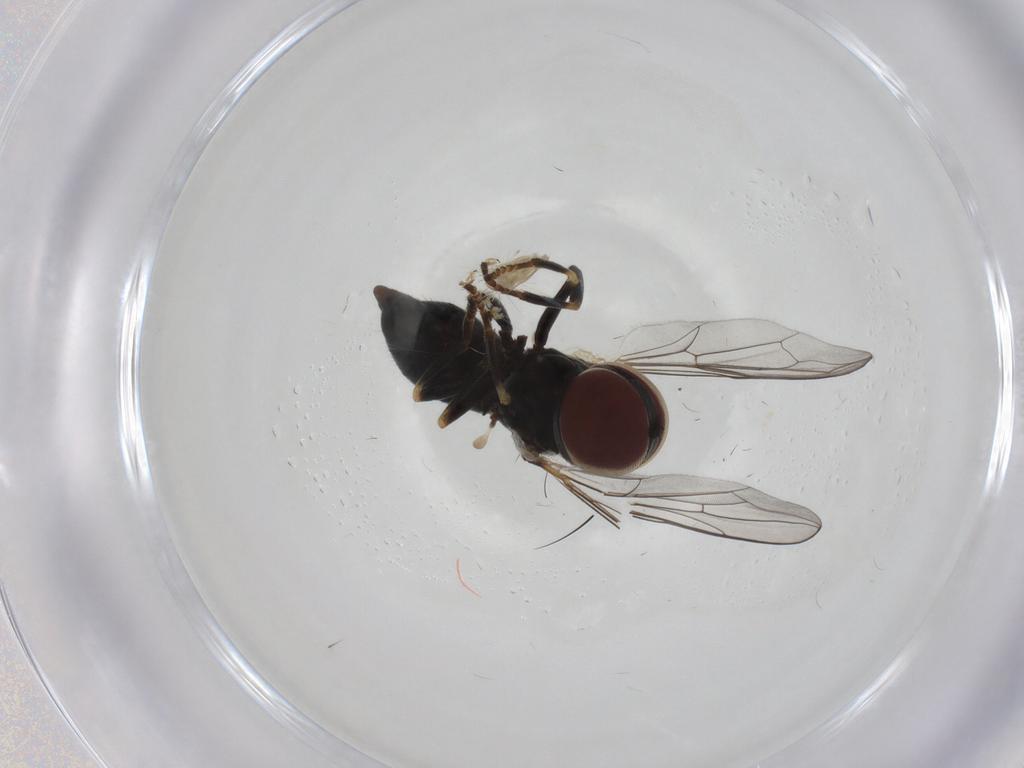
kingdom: Animalia
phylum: Arthropoda
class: Insecta
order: Diptera
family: Pipunculidae
